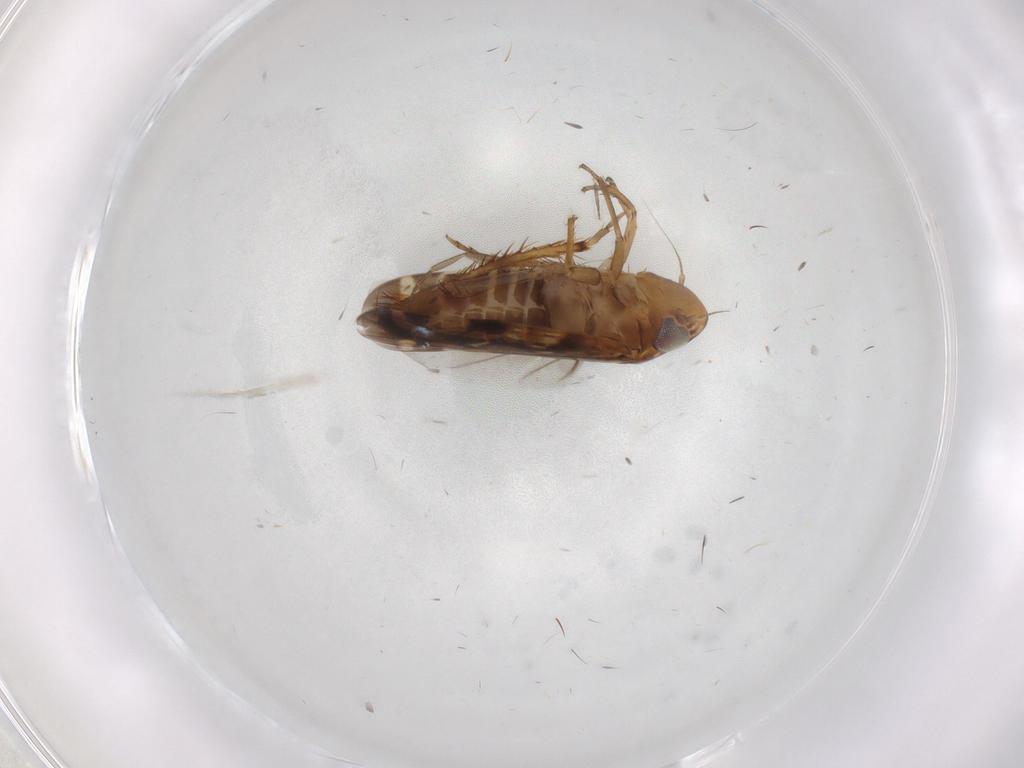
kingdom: Animalia
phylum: Arthropoda
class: Insecta
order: Hemiptera
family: Cicadellidae
